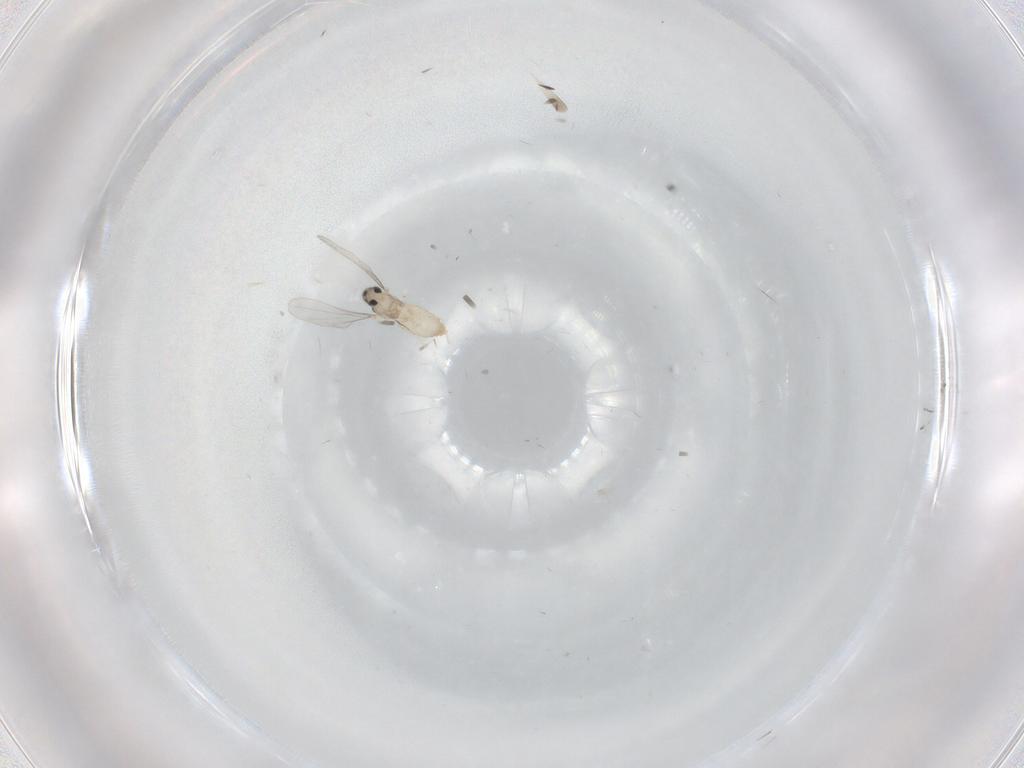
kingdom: Animalia
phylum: Arthropoda
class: Insecta
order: Diptera
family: Cecidomyiidae
